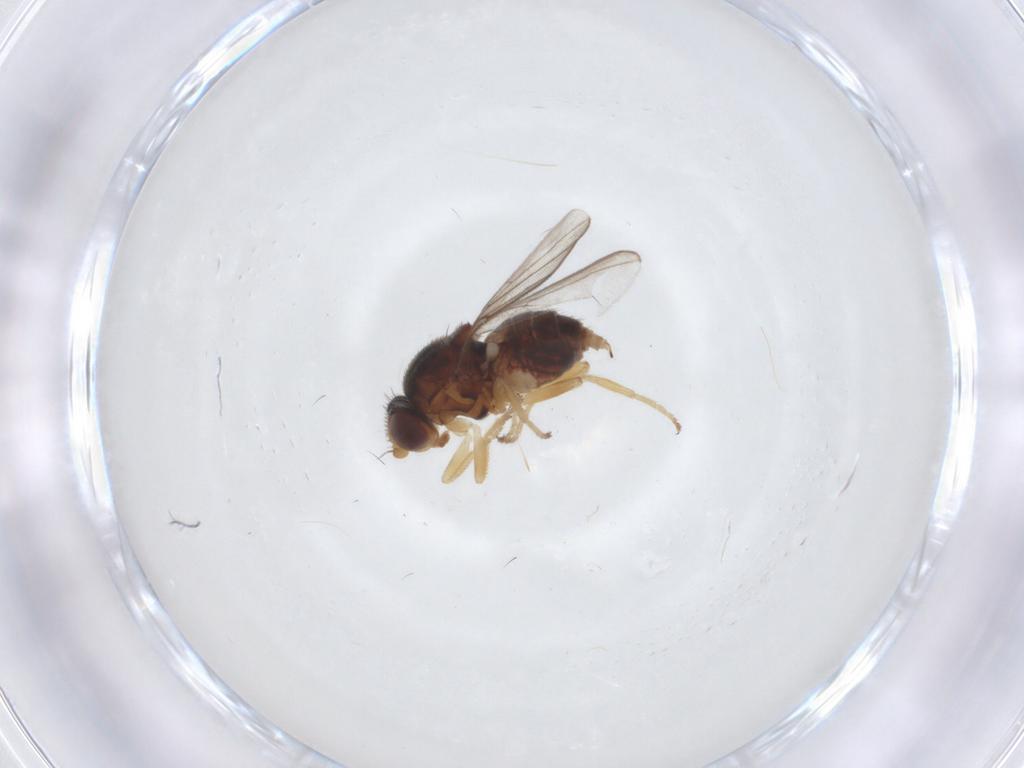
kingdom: Animalia
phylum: Arthropoda
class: Insecta
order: Diptera
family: Chloropidae
